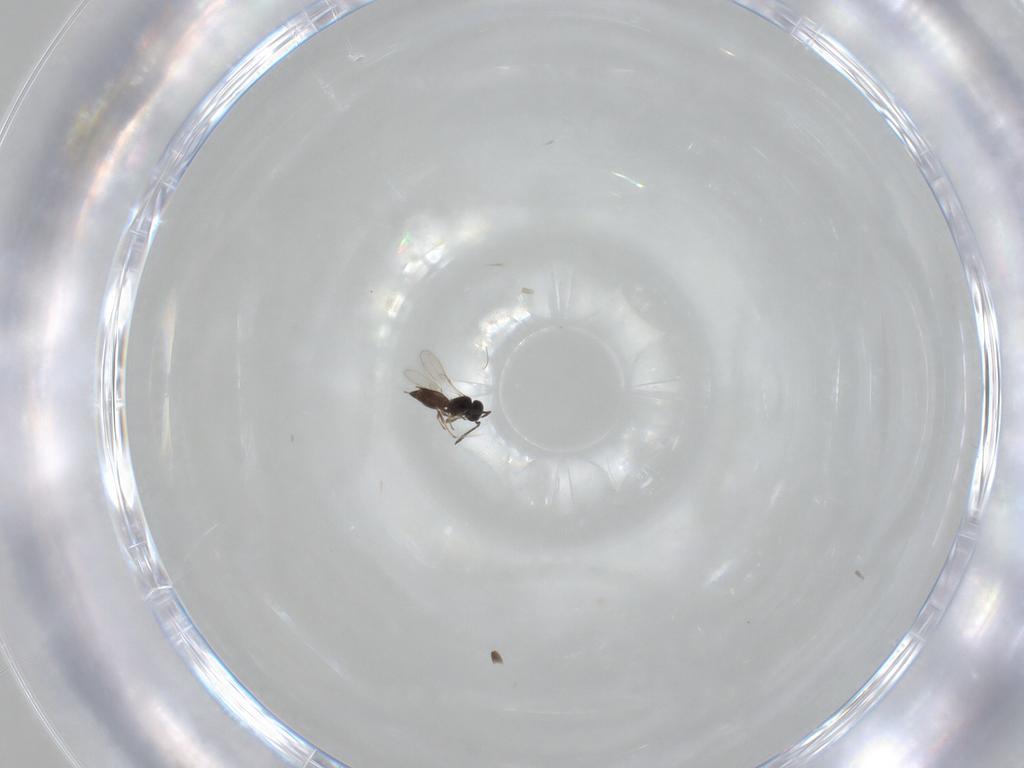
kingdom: Animalia
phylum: Arthropoda
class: Insecta
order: Hymenoptera
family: Scelionidae
